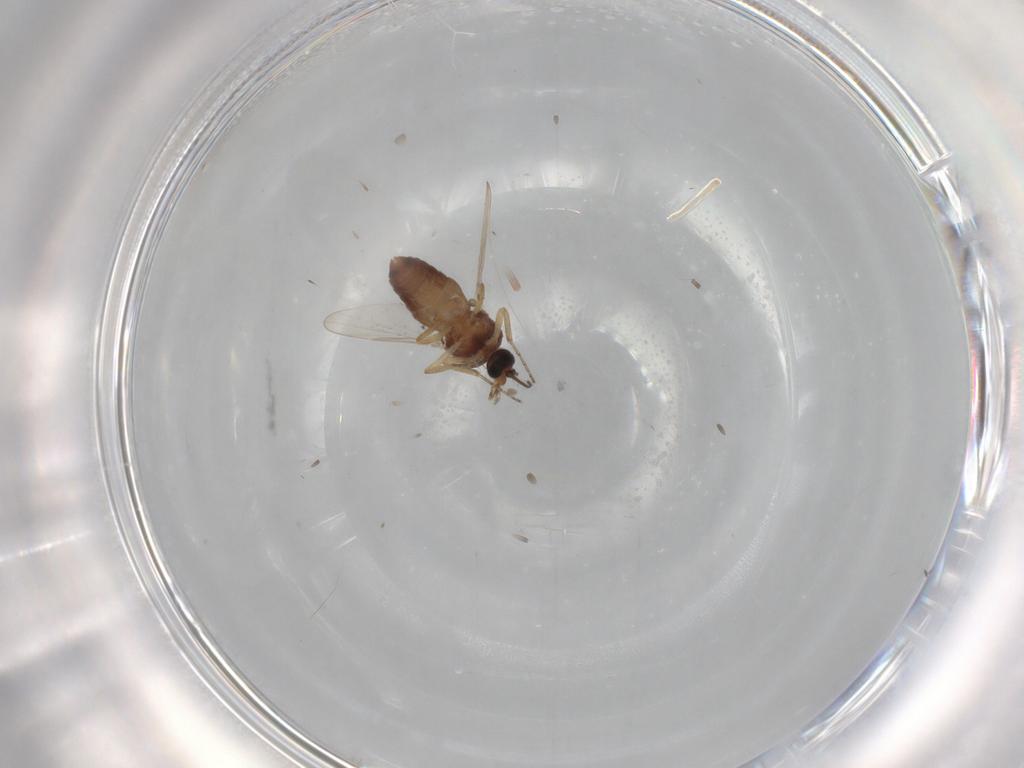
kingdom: Animalia
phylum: Arthropoda
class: Insecta
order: Diptera
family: Ceratopogonidae
